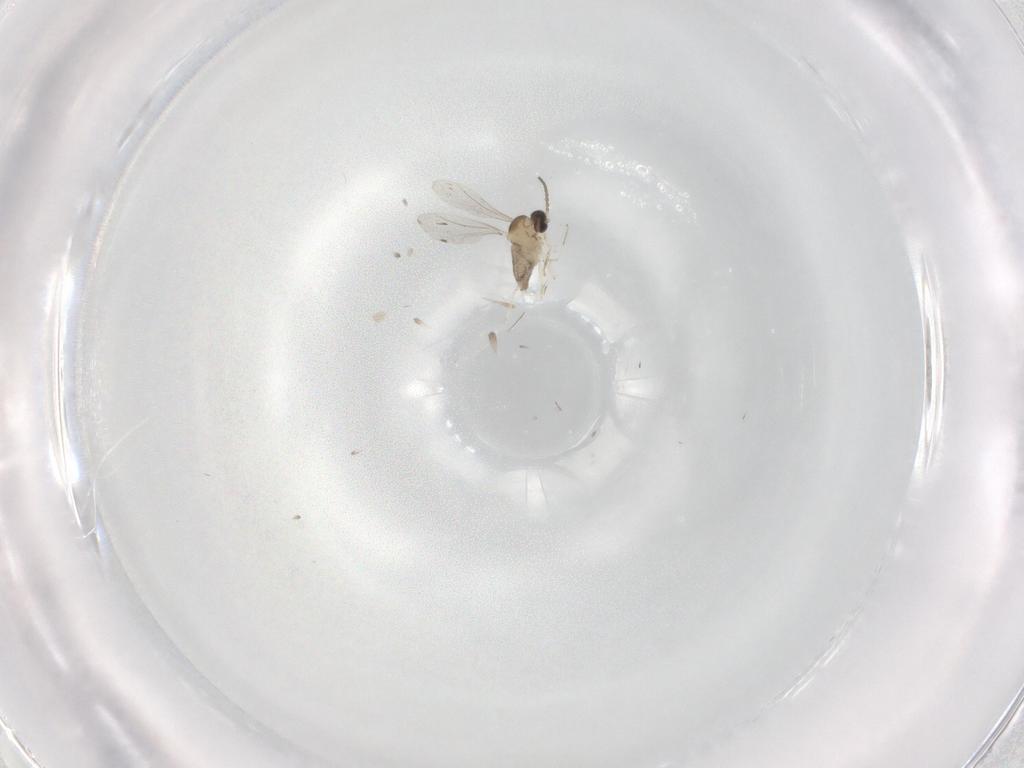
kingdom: Animalia
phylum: Arthropoda
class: Insecta
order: Diptera
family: Cecidomyiidae
